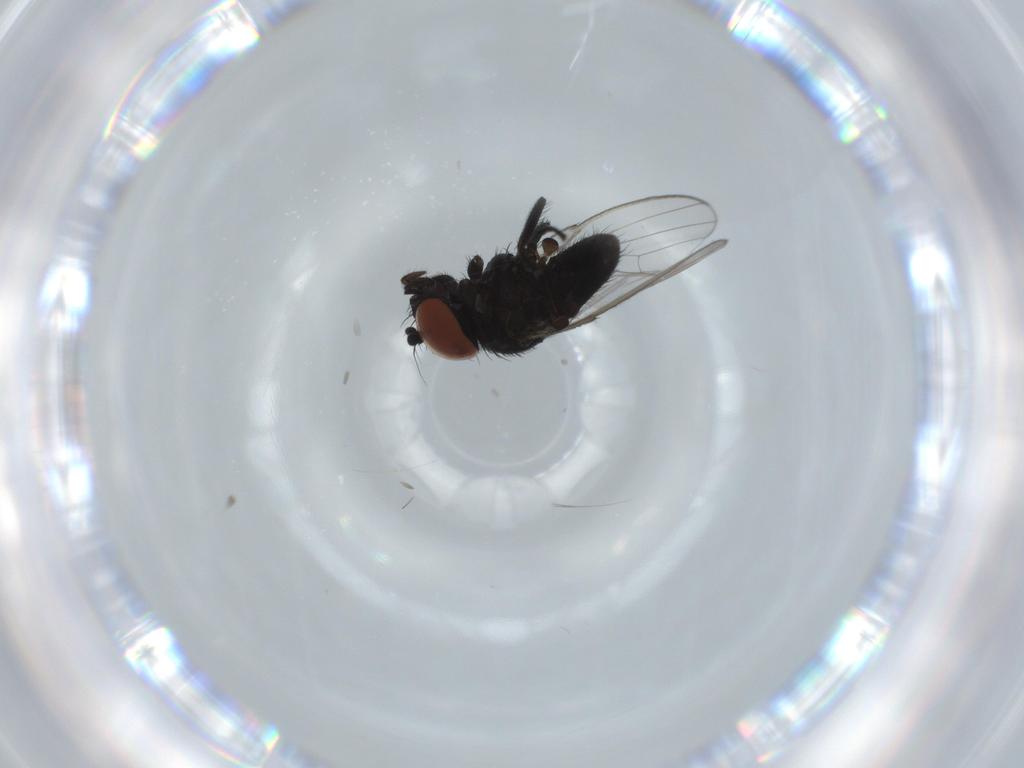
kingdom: Animalia
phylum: Arthropoda
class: Insecta
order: Diptera
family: Milichiidae
